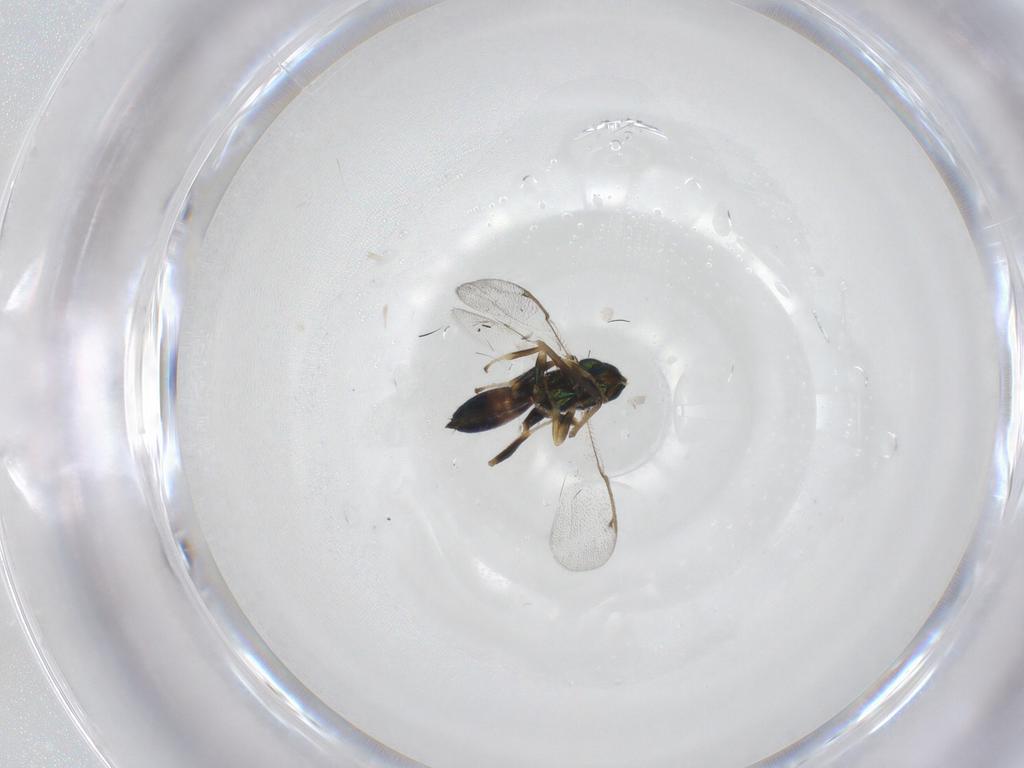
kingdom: Animalia
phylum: Arthropoda
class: Insecta
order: Hymenoptera
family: Torymidae
